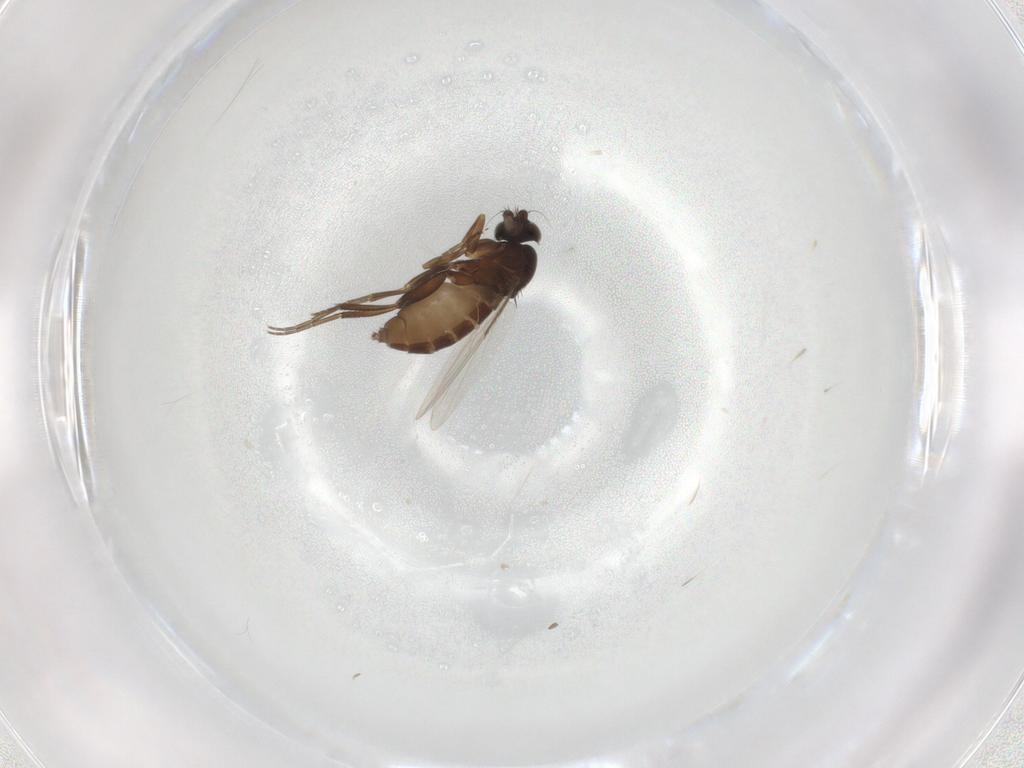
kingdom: Animalia
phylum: Arthropoda
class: Insecta
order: Diptera
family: Phoridae
